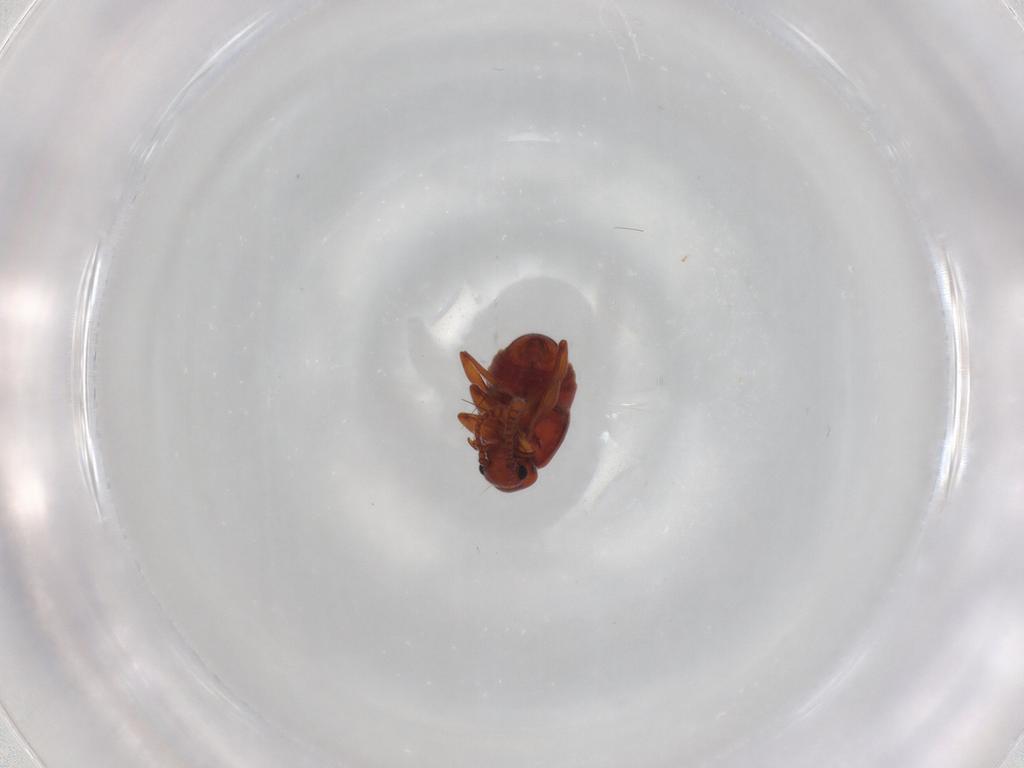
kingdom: Animalia
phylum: Arthropoda
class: Insecta
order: Coleoptera
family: Staphylinidae
